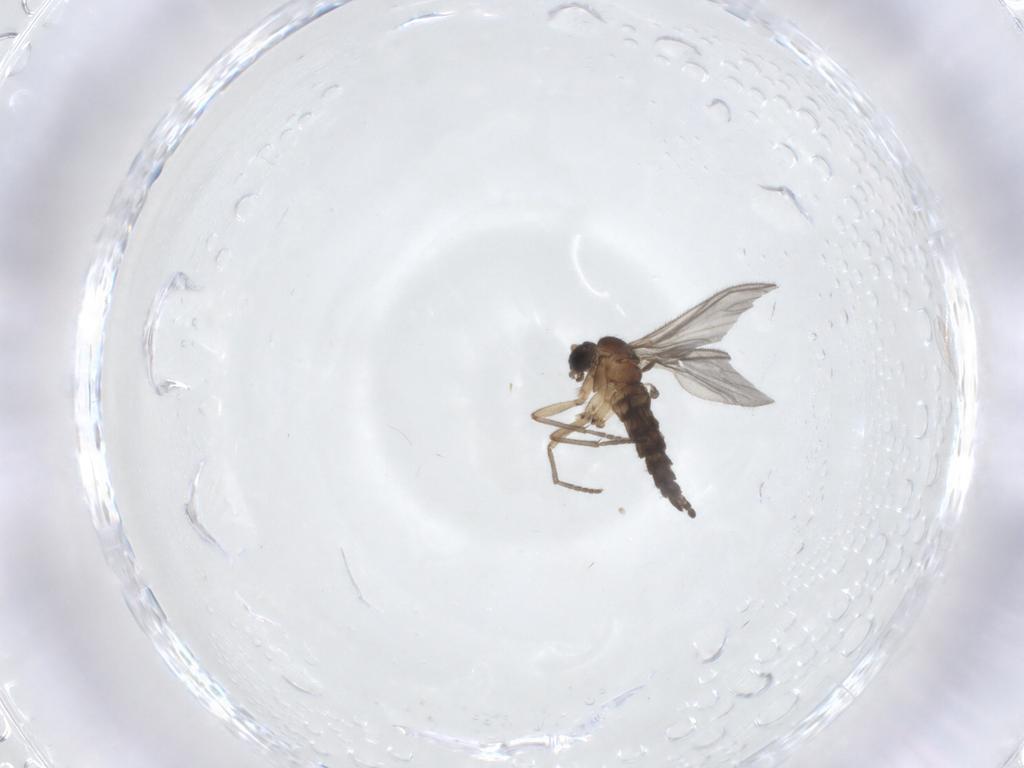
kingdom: Animalia
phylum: Arthropoda
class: Insecta
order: Diptera
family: Sciaridae
